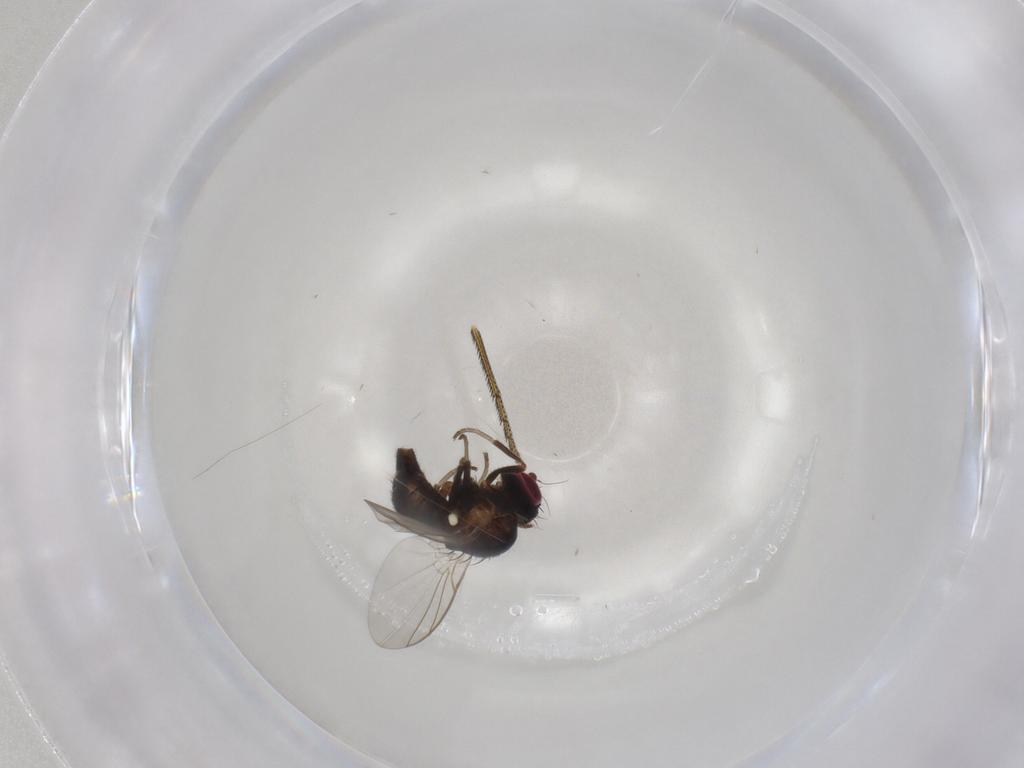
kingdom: Animalia
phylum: Arthropoda
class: Insecta
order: Diptera
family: Agromyzidae
